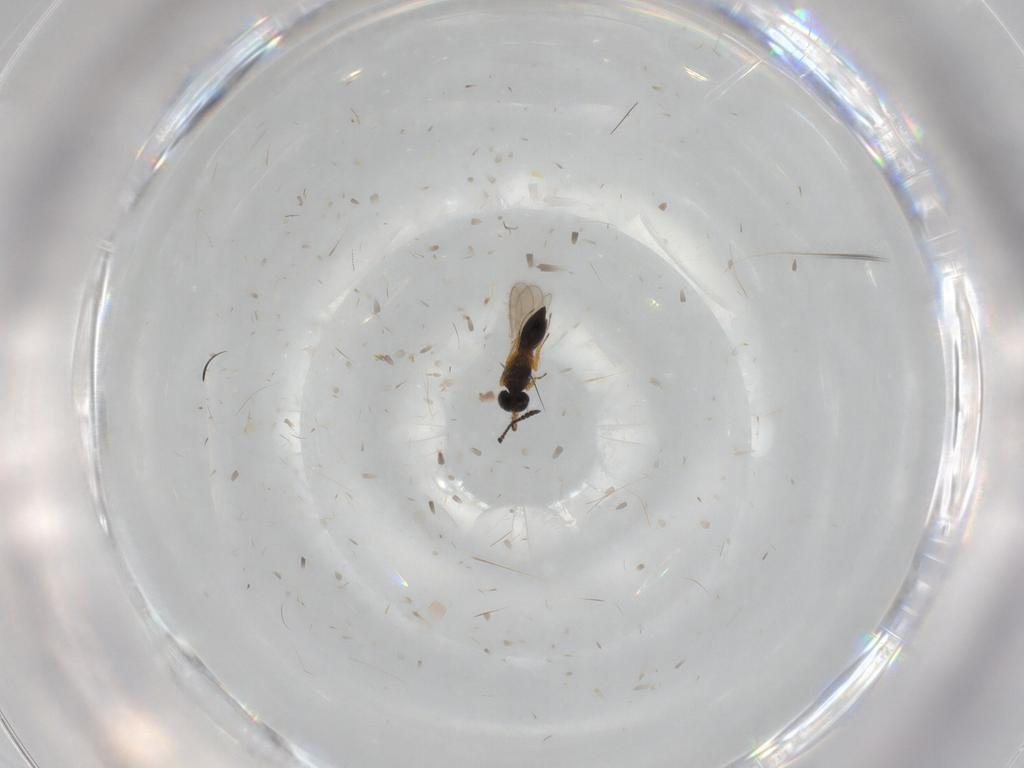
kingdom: Animalia
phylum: Arthropoda
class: Insecta
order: Hymenoptera
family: Scelionidae
